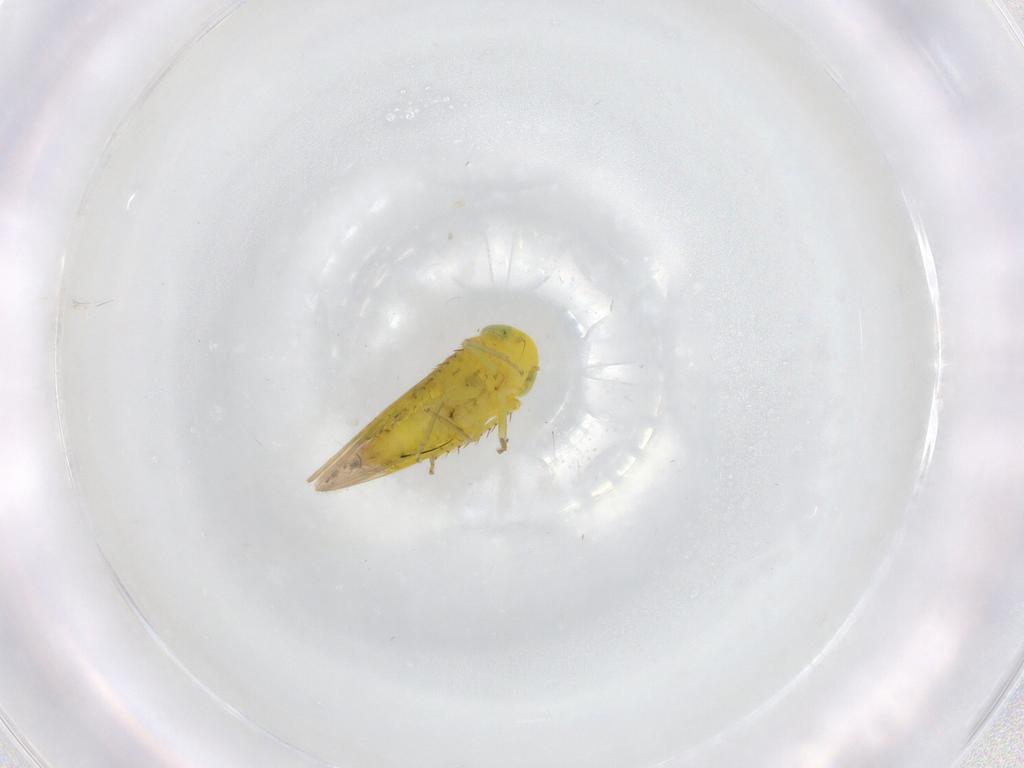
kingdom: Animalia
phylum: Arthropoda
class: Insecta
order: Hemiptera
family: Cicadellidae
